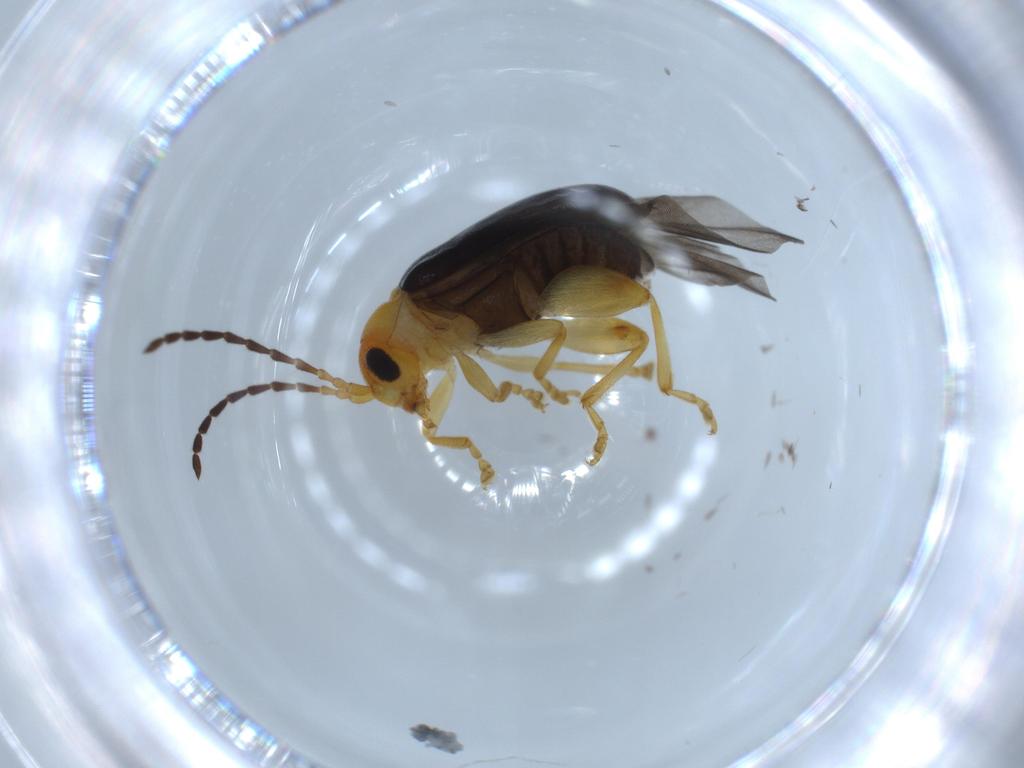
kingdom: Animalia
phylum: Arthropoda
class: Insecta
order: Coleoptera
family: Chrysomelidae
